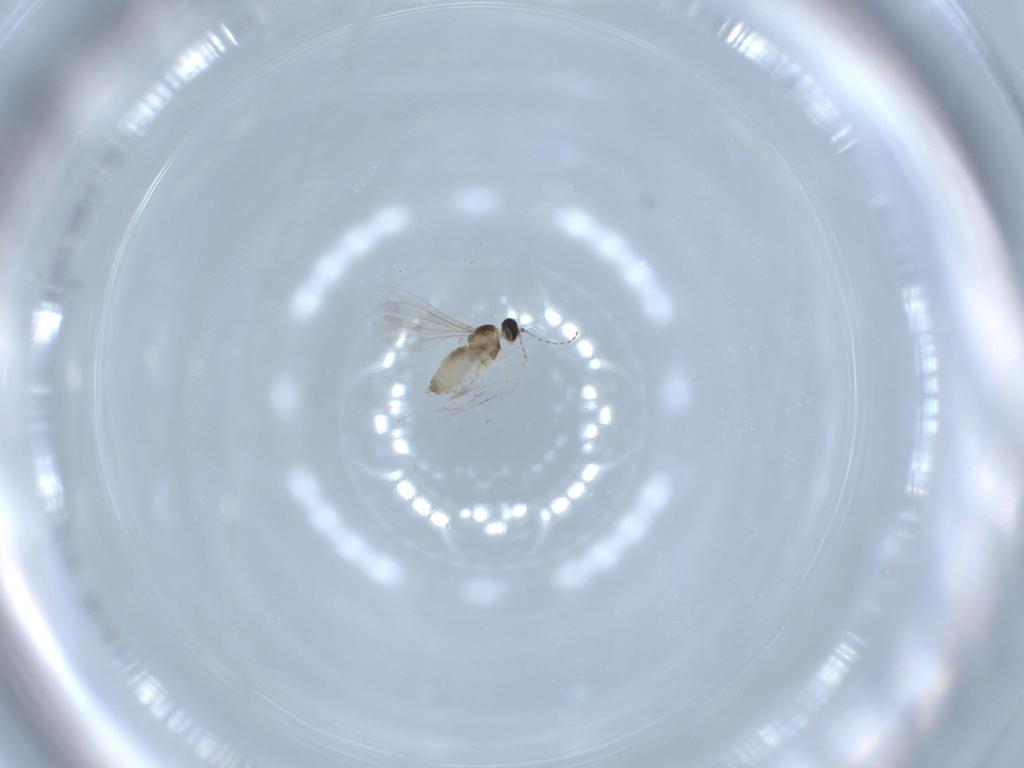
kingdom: Animalia
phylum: Arthropoda
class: Insecta
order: Diptera
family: Cecidomyiidae
